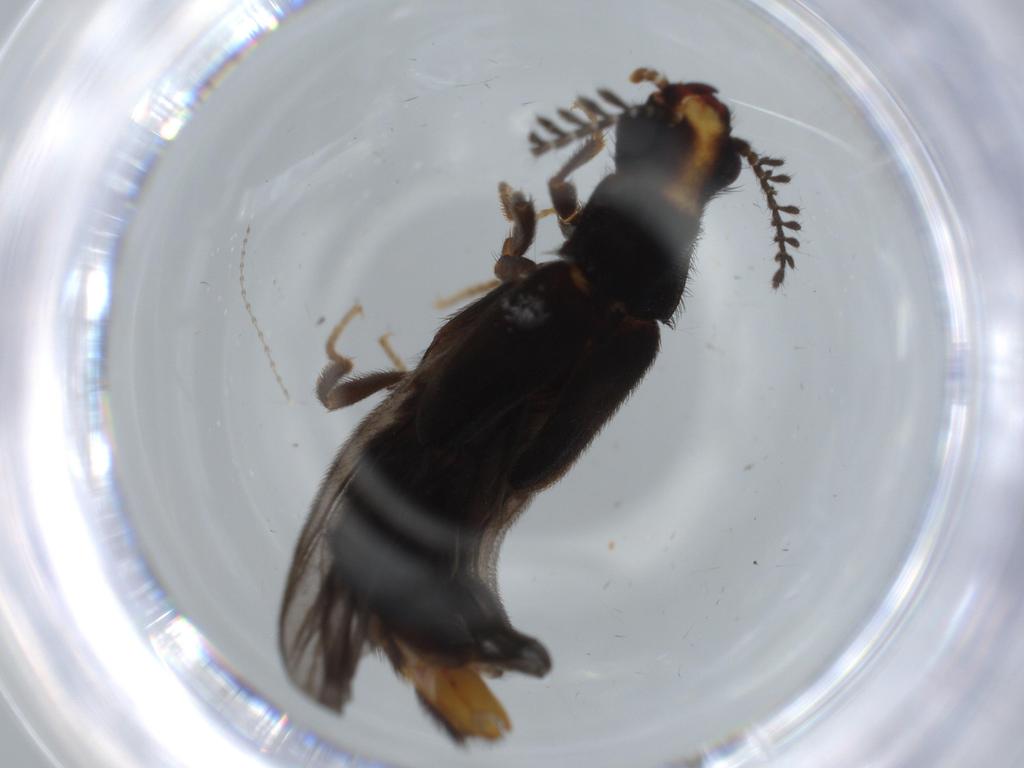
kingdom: Animalia
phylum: Arthropoda
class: Insecta
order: Coleoptera
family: Phengodidae
